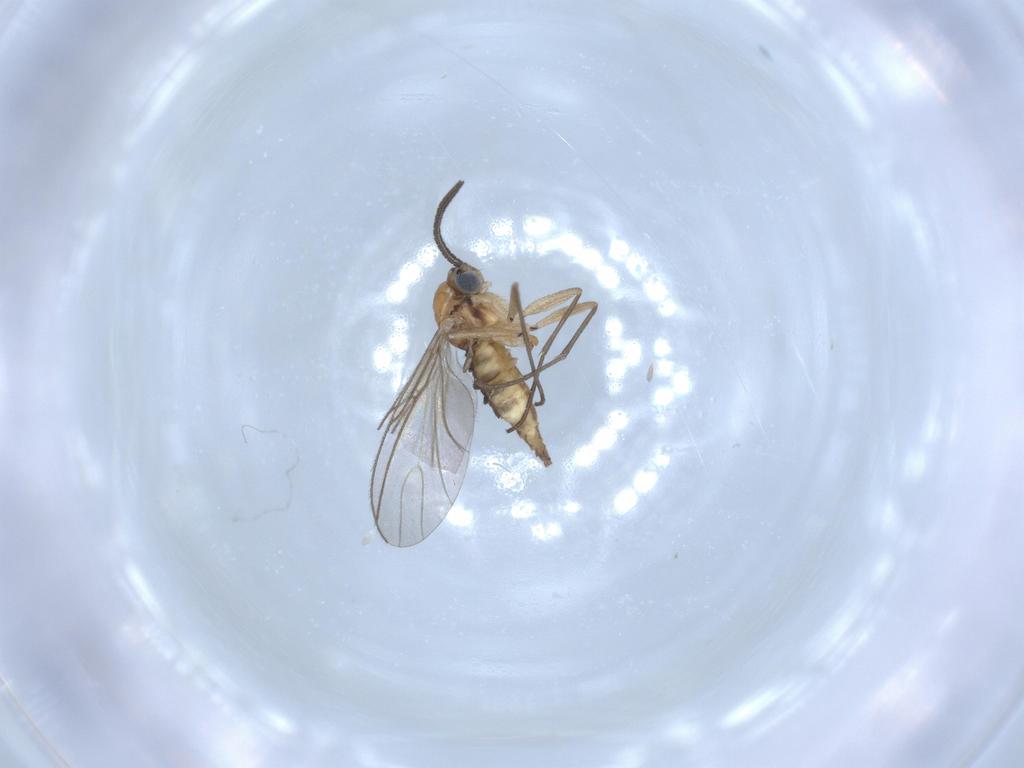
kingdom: Animalia
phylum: Arthropoda
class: Insecta
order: Diptera
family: Sciaridae
